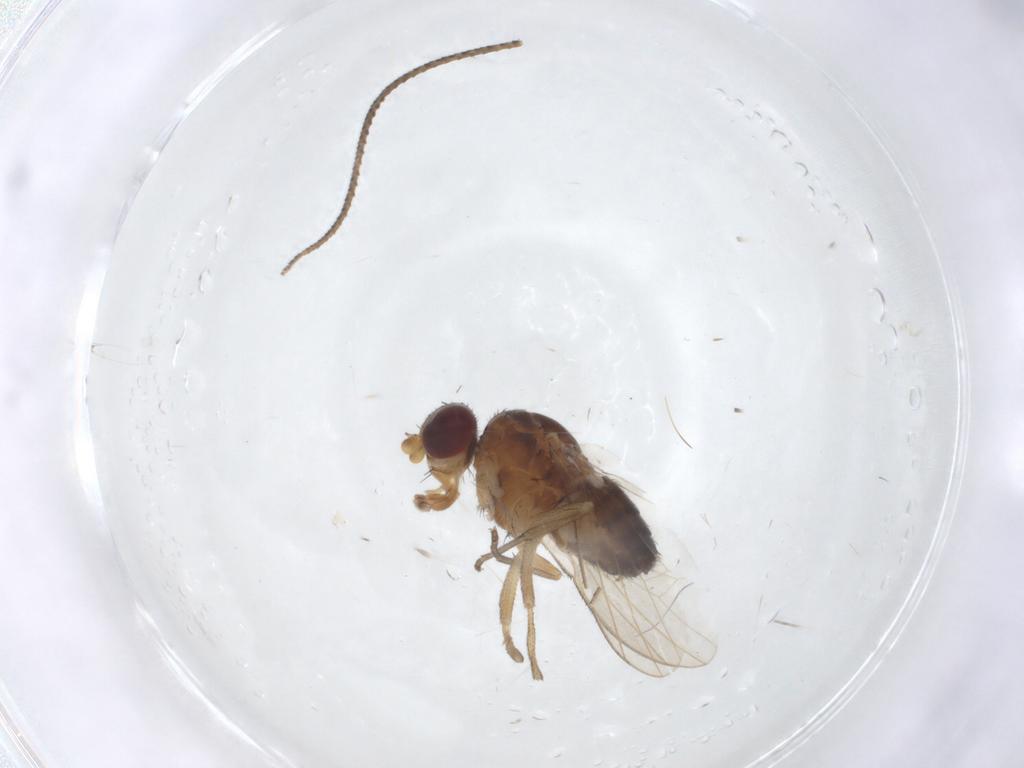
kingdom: Animalia
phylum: Arthropoda
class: Insecta
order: Diptera
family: Heleomyzidae
